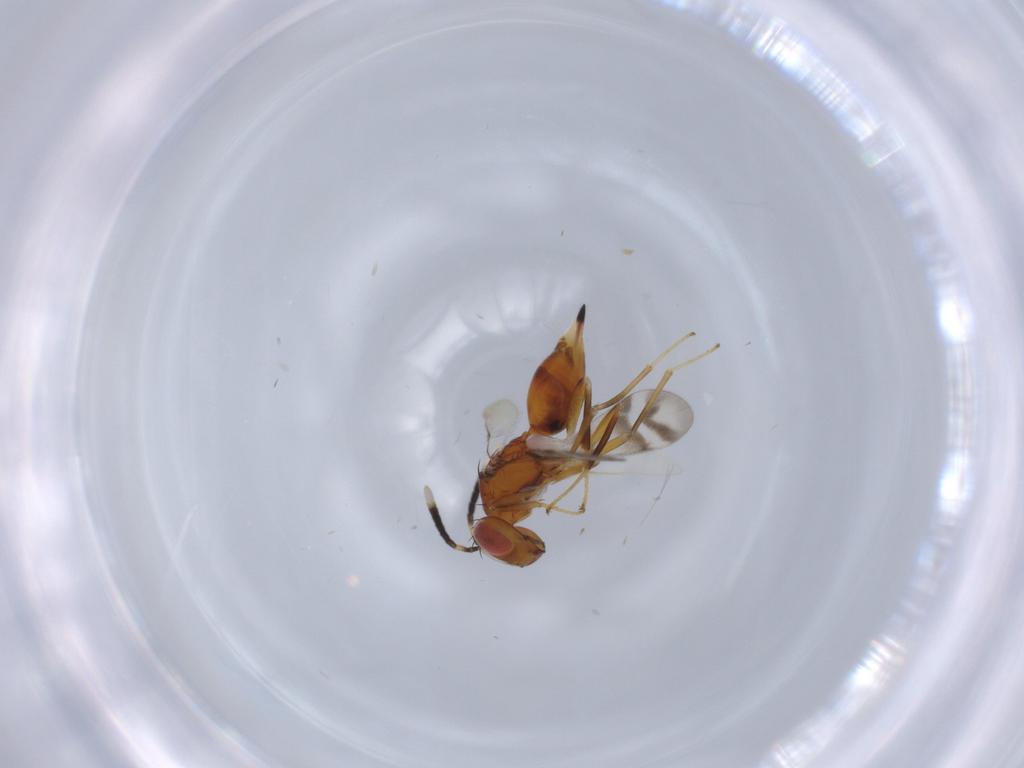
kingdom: Animalia
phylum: Arthropoda
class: Insecta
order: Hymenoptera
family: Diparidae
